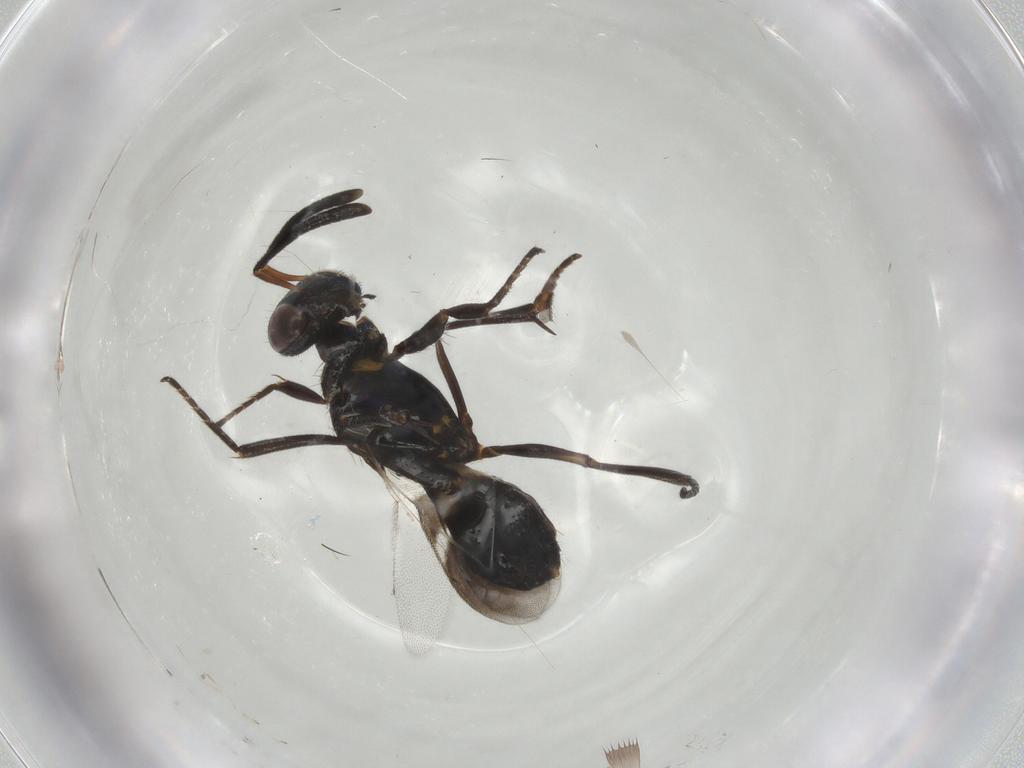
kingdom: Animalia
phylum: Arthropoda
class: Insecta
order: Hymenoptera
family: Eupelmidae
